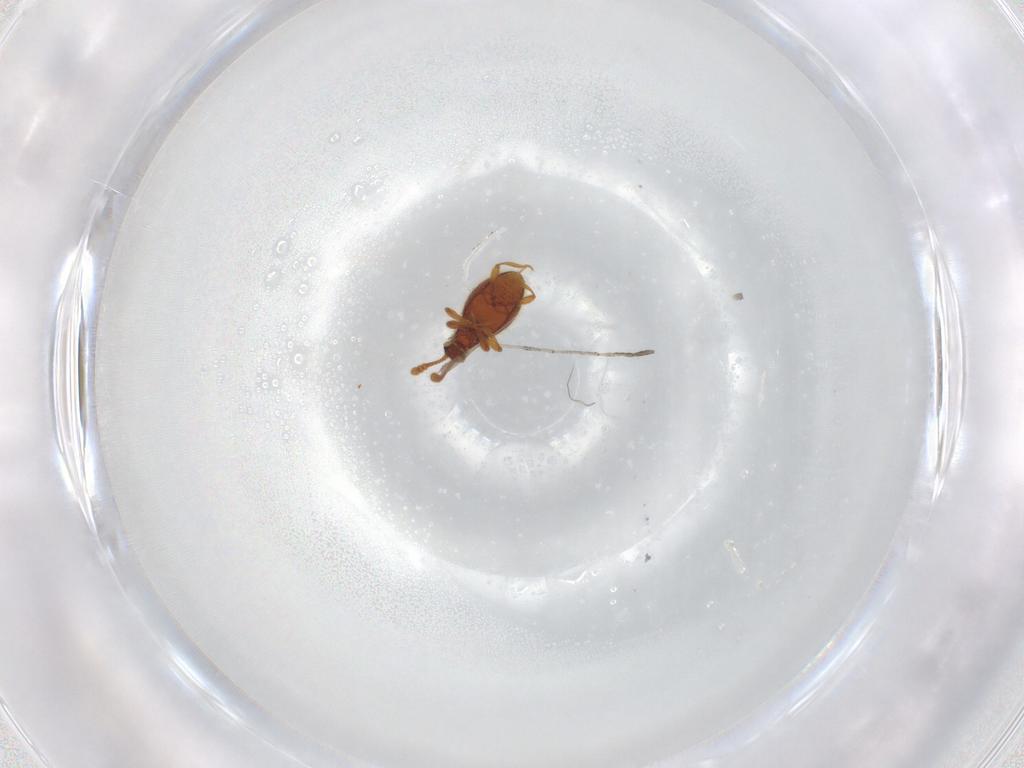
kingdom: Animalia
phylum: Arthropoda
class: Insecta
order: Coleoptera
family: Staphylinidae
